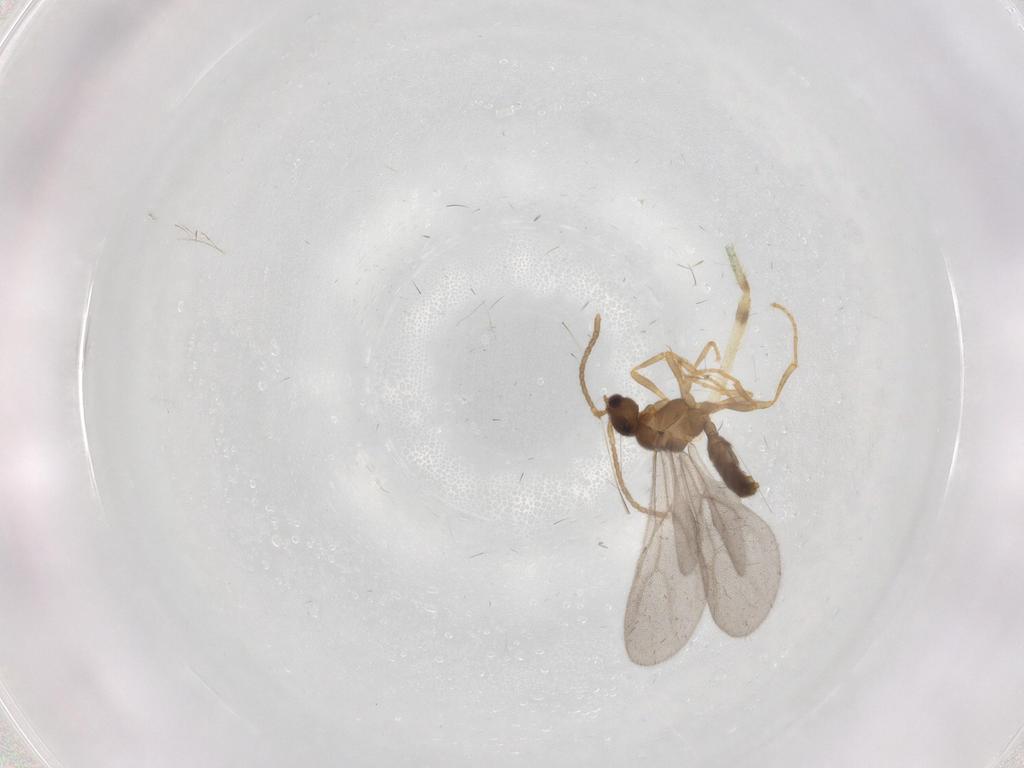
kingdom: Animalia
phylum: Arthropoda
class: Insecta
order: Hymenoptera
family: Formicidae
